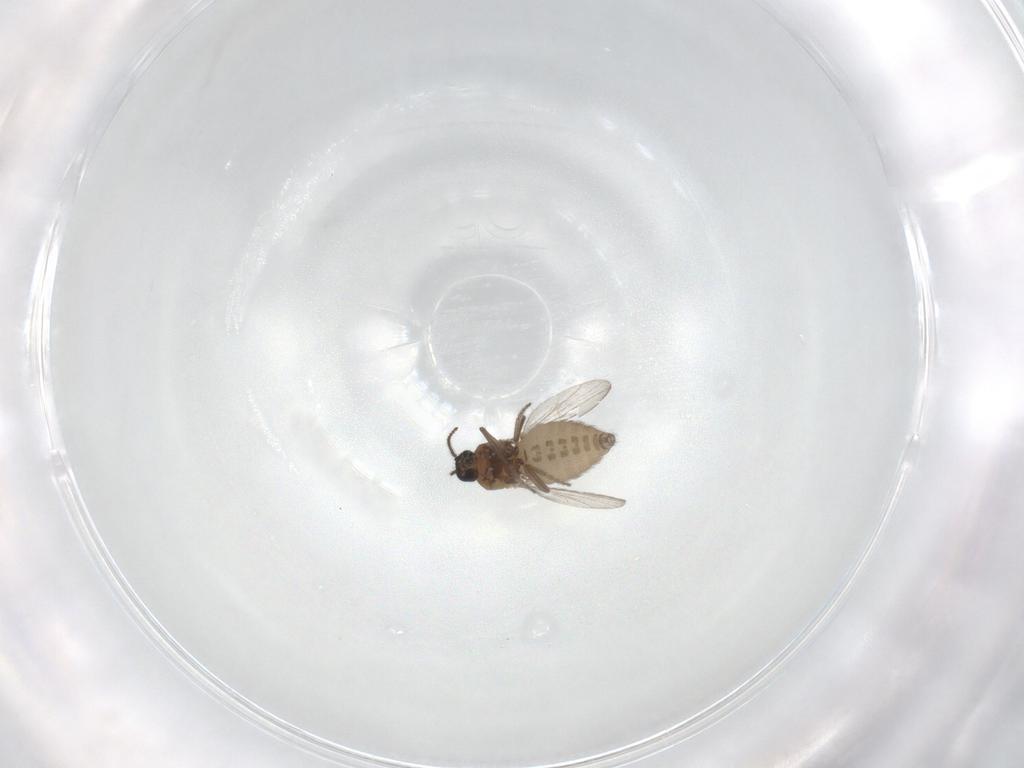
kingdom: Animalia
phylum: Arthropoda
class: Insecta
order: Diptera
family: Ceratopogonidae
